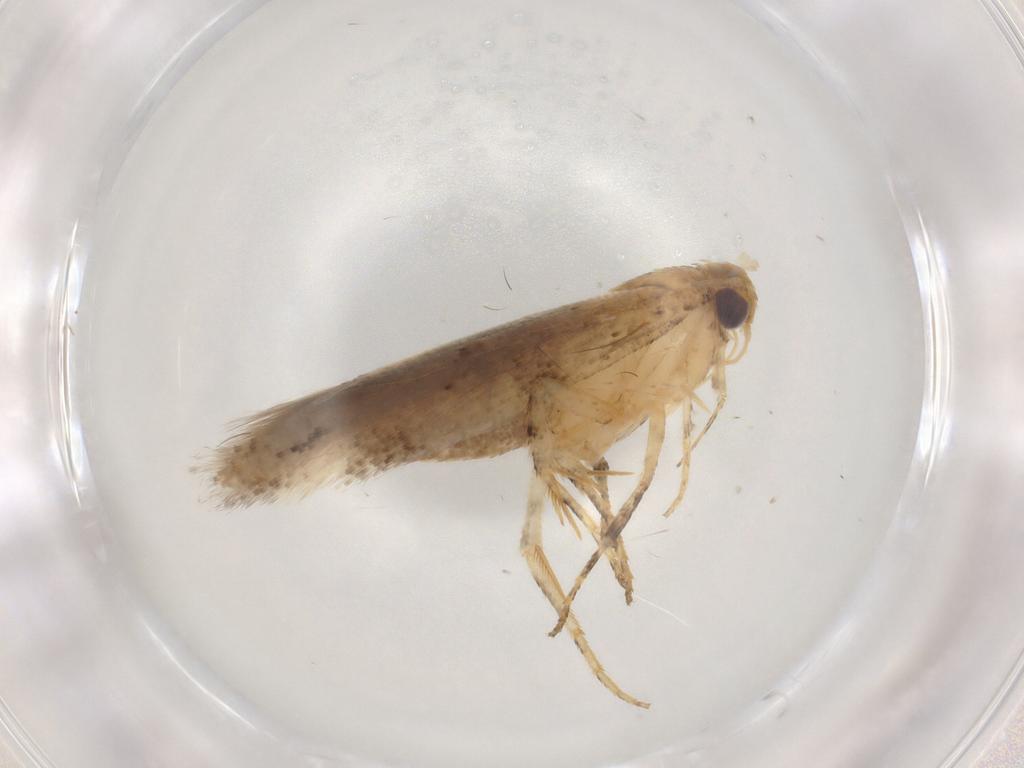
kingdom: Animalia
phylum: Arthropoda
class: Insecta
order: Lepidoptera
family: Gelechiidae
